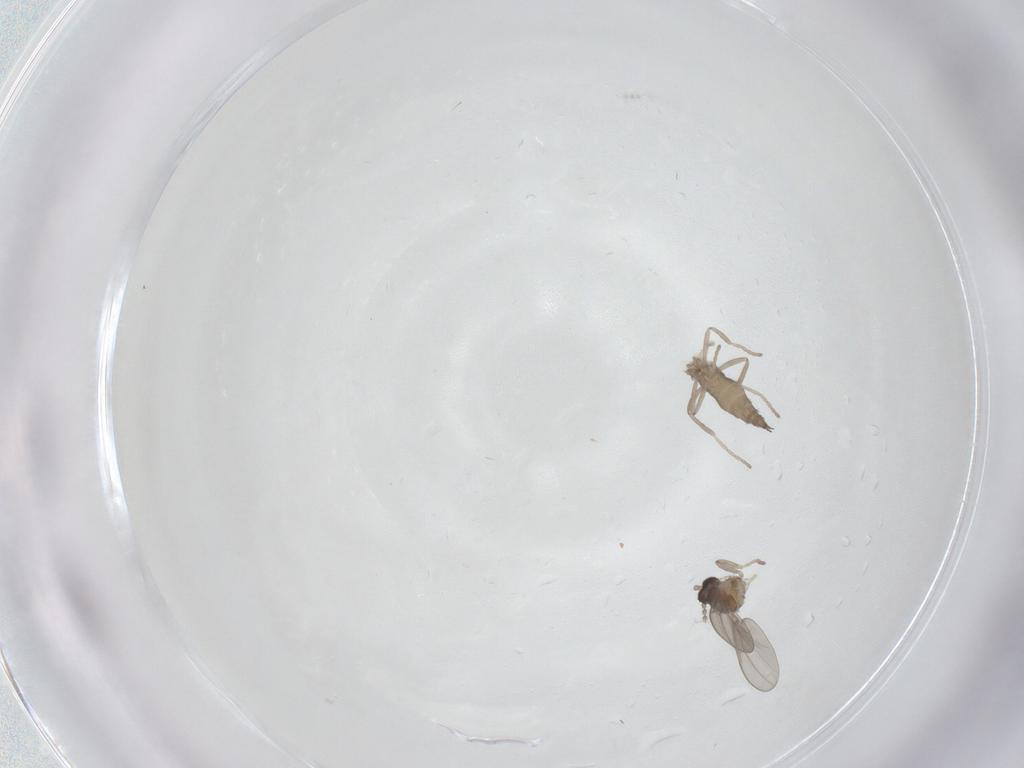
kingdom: Animalia
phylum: Arthropoda
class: Insecta
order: Diptera
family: Cecidomyiidae
